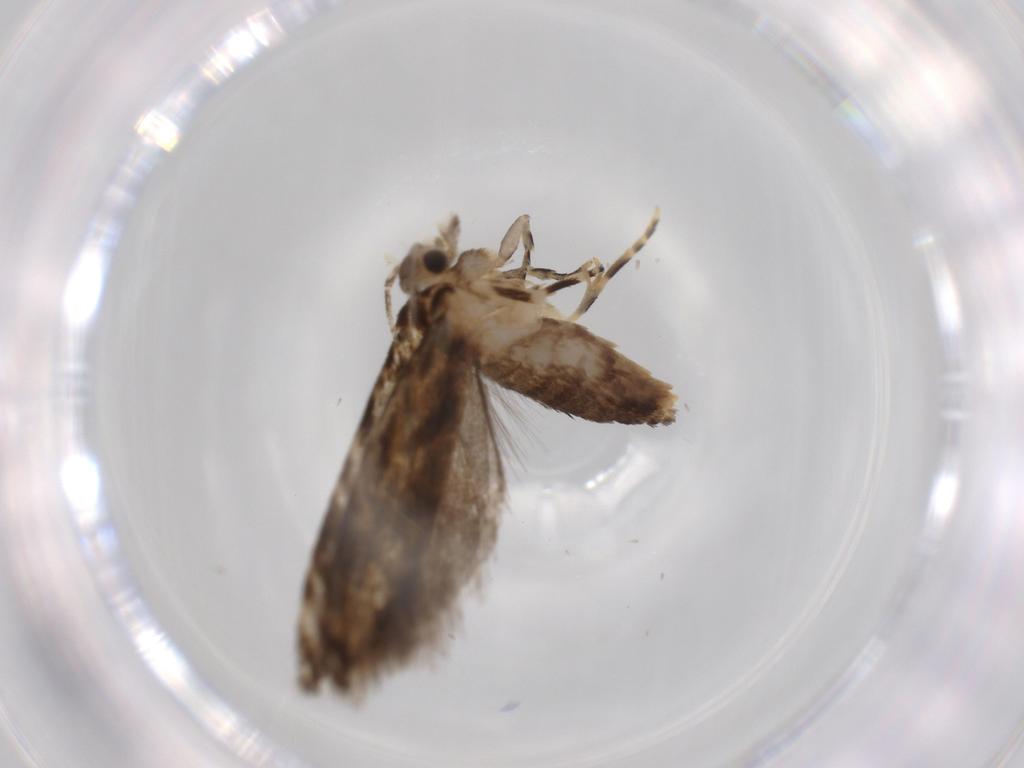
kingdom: Animalia
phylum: Arthropoda
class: Insecta
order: Lepidoptera
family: Tineidae
